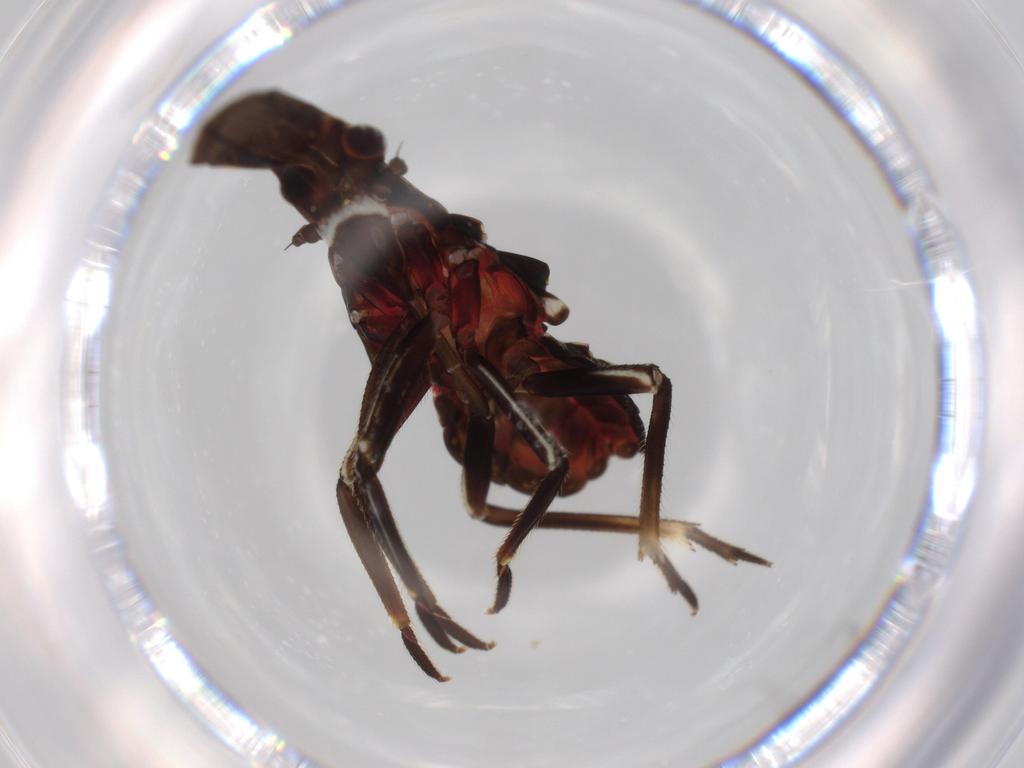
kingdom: Animalia
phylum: Arthropoda
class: Insecta
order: Hemiptera
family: Fulgoridae
